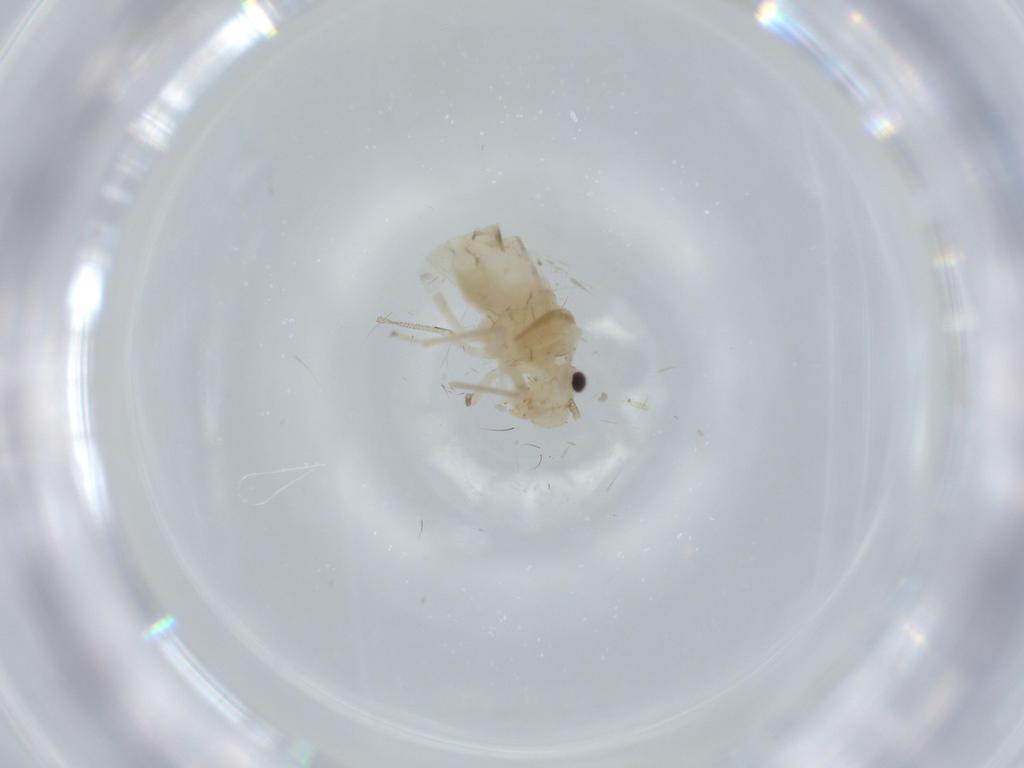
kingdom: Animalia
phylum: Arthropoda
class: Insecta
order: Psocodea
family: Caeciliusidae
